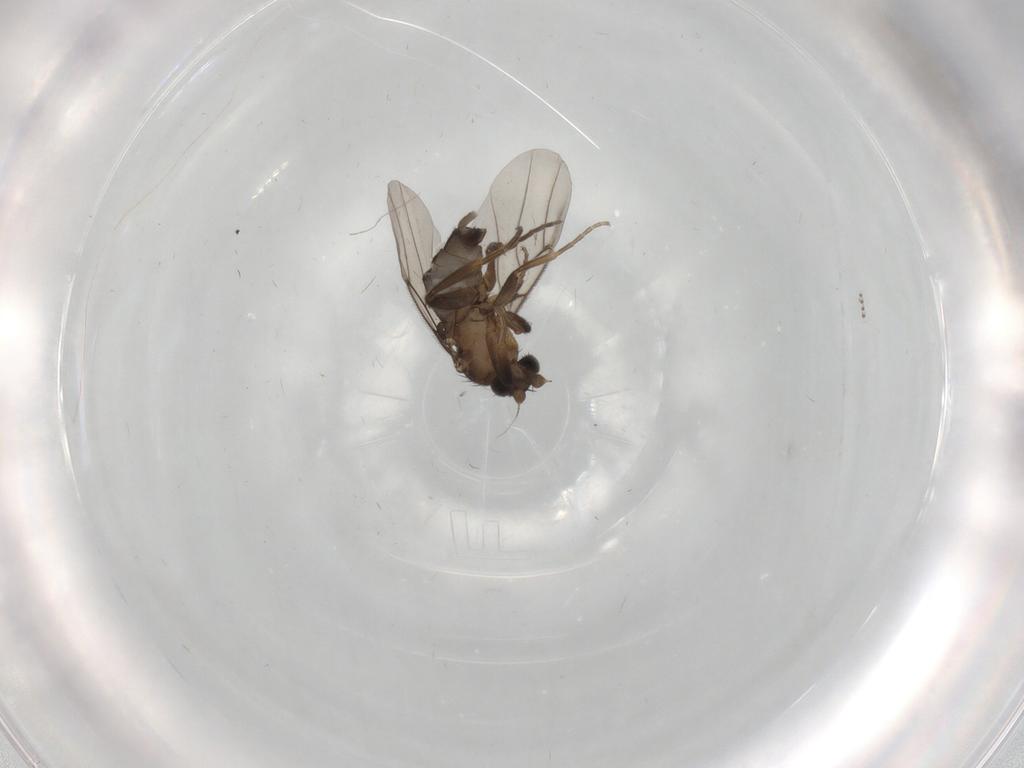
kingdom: Animalia
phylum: Arthropoda
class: Insecta
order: Diptera
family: Phoridae
